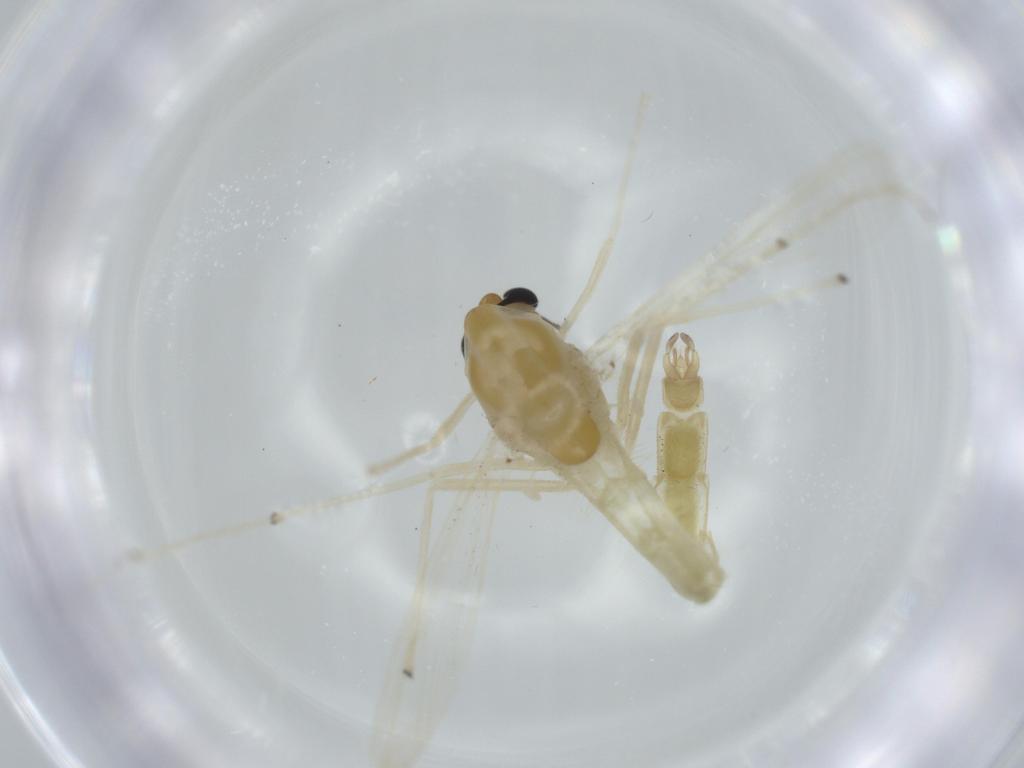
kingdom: Animalia
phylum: Arthropoda
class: Insecta
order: Diptera
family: Chironomidae
